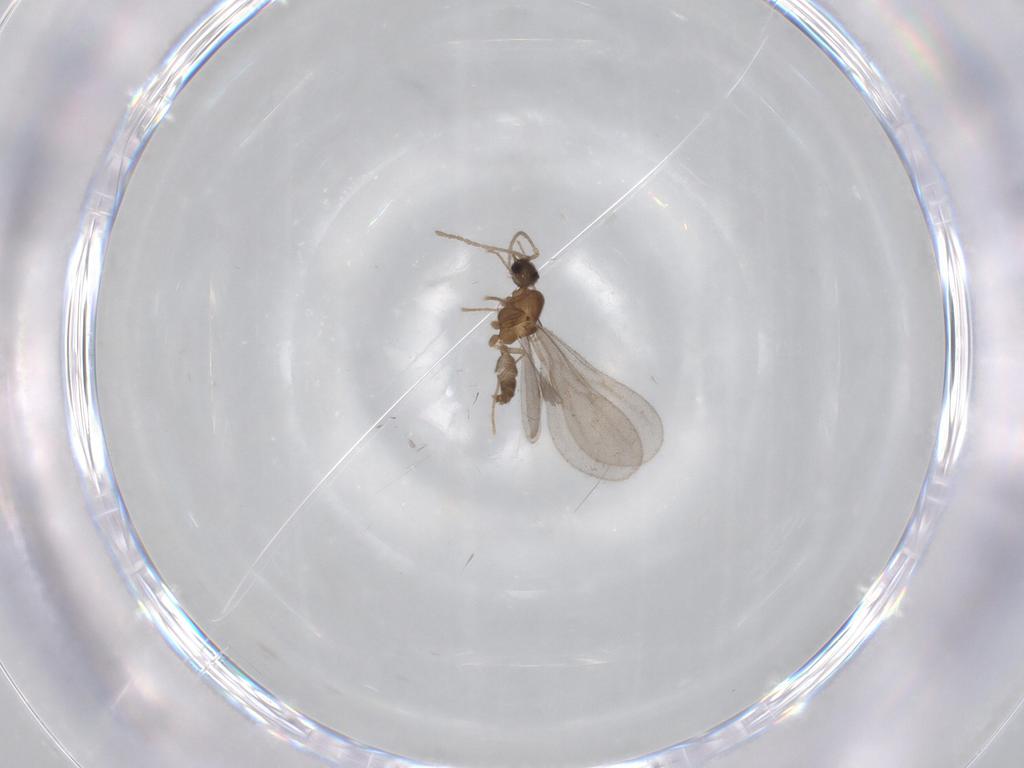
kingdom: Animalia
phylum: Arthropoda
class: Insecta
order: Hymenoptera
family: Formicidae
